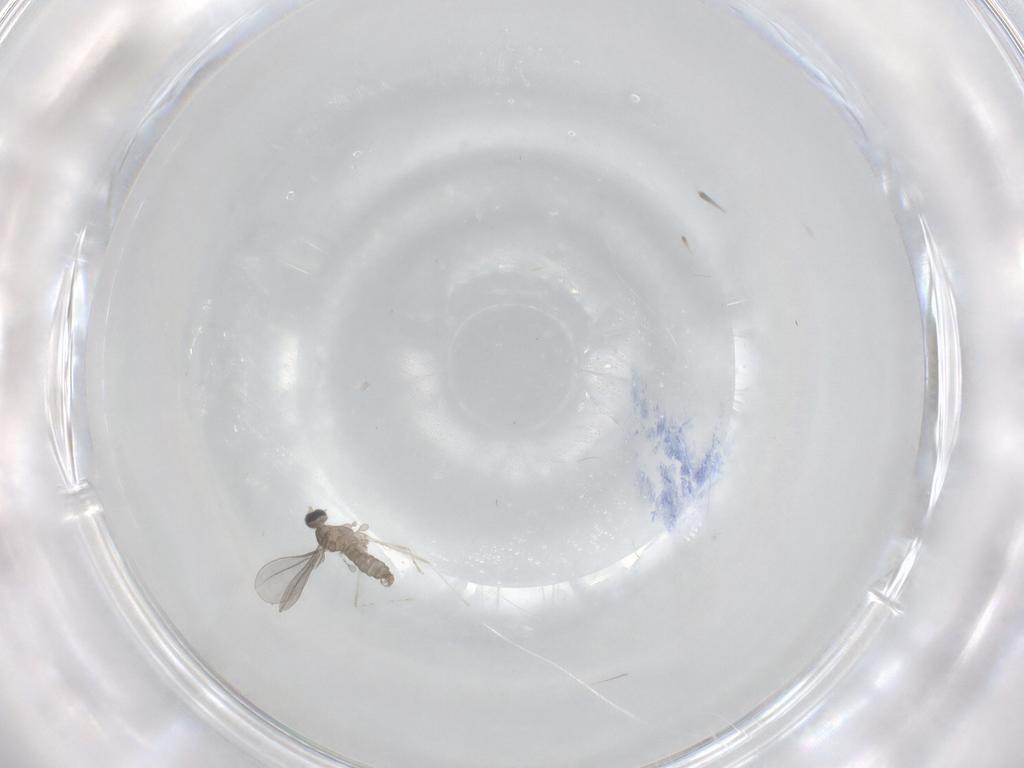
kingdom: Animalia
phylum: Arthropoda
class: Insecta
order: Diptera
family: Cecidomyiidae
